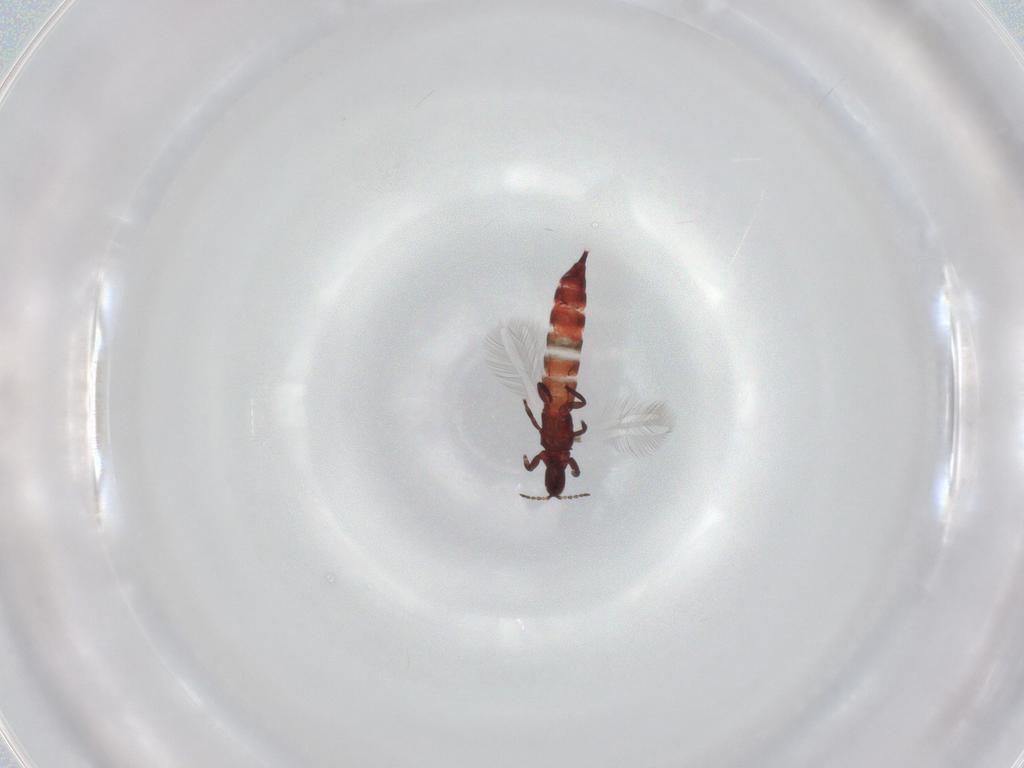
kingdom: Animalia
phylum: Arthropoda
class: Insecta
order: Thysanoptera
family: Phlaeothripidae
